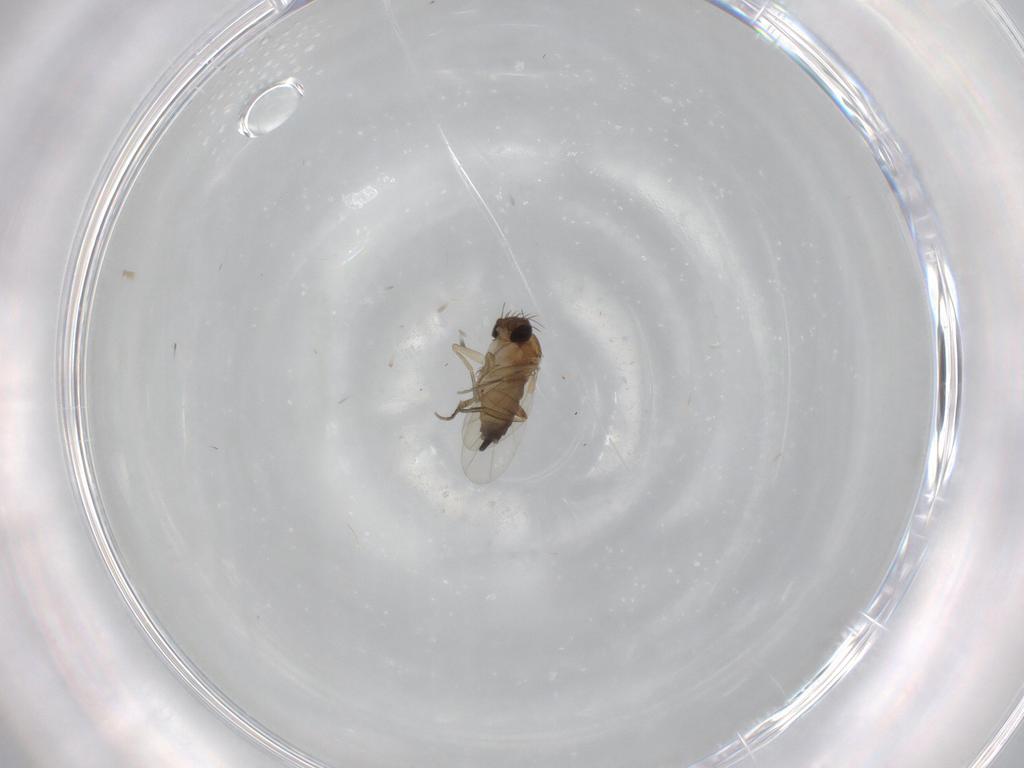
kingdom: Animalia
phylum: Arthropoda
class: Insecta
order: Diptera
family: Phoridae
